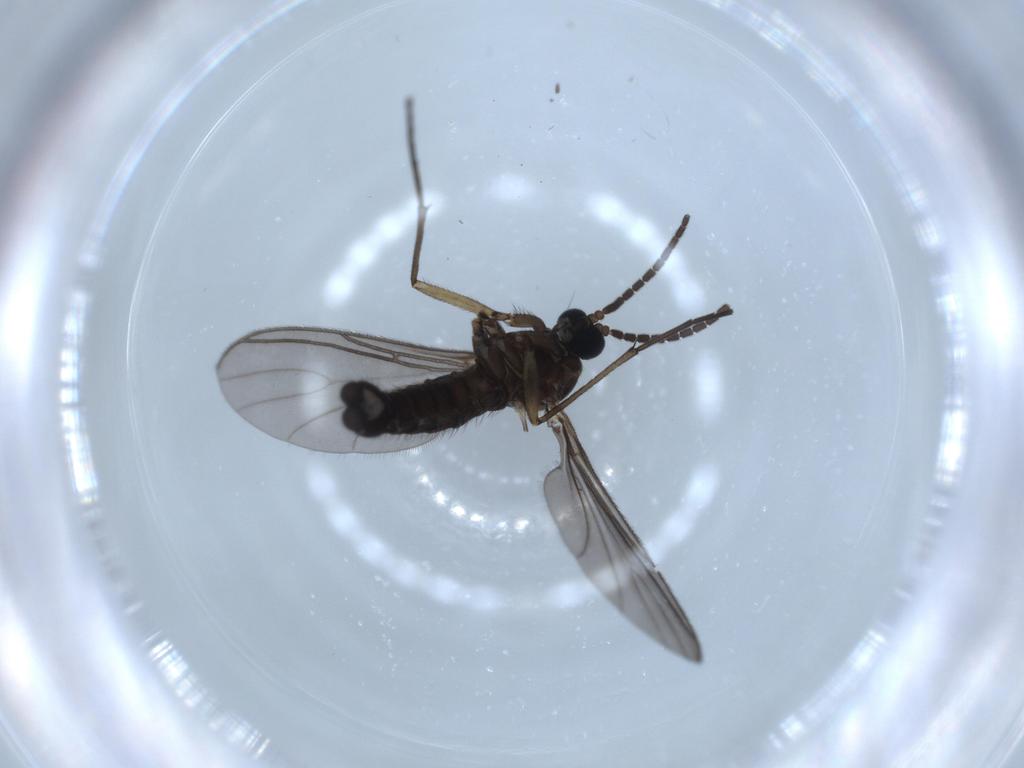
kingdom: Animalia
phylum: Arthropoda
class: Insecta
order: Diptera
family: Sciaridae
